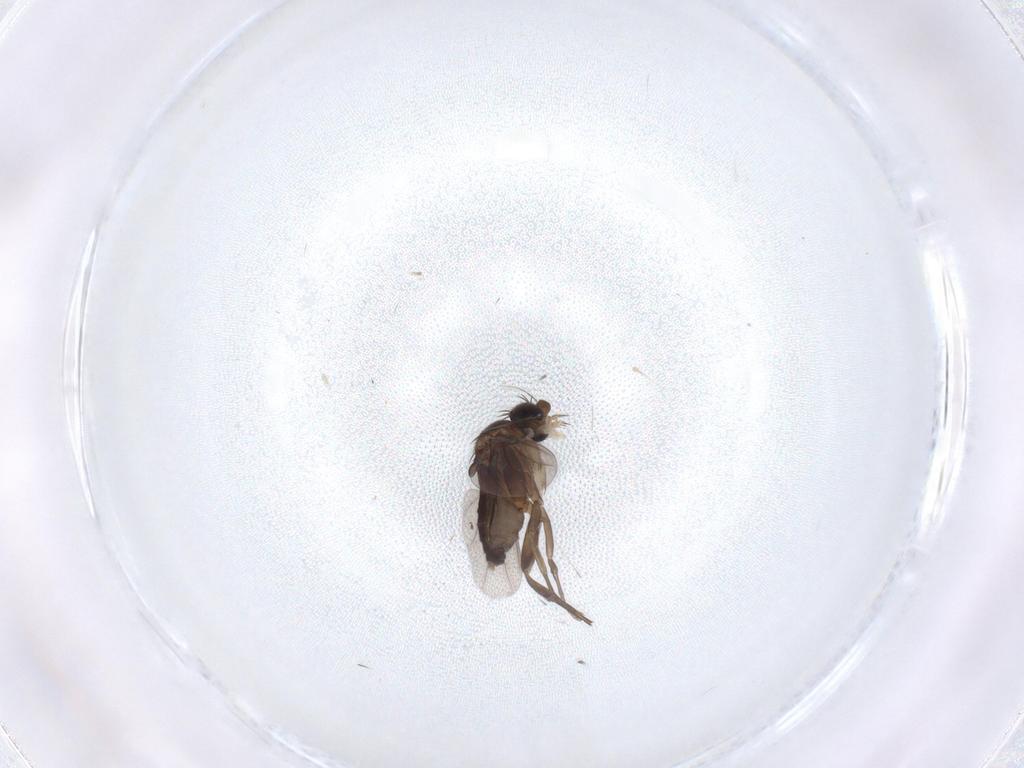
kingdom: Animalia
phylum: Arthropoda
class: Insecta
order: Diptera
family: Phoridae
